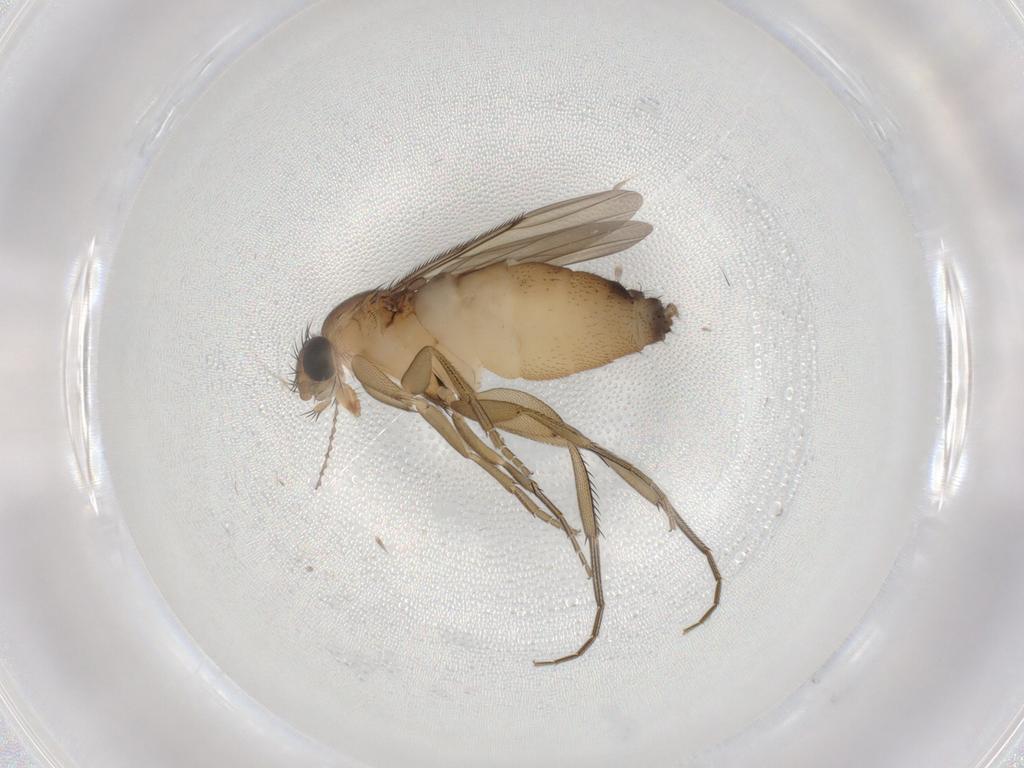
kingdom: Animalia
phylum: Arthropoda
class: Insecta
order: Diptera
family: Phoridae
